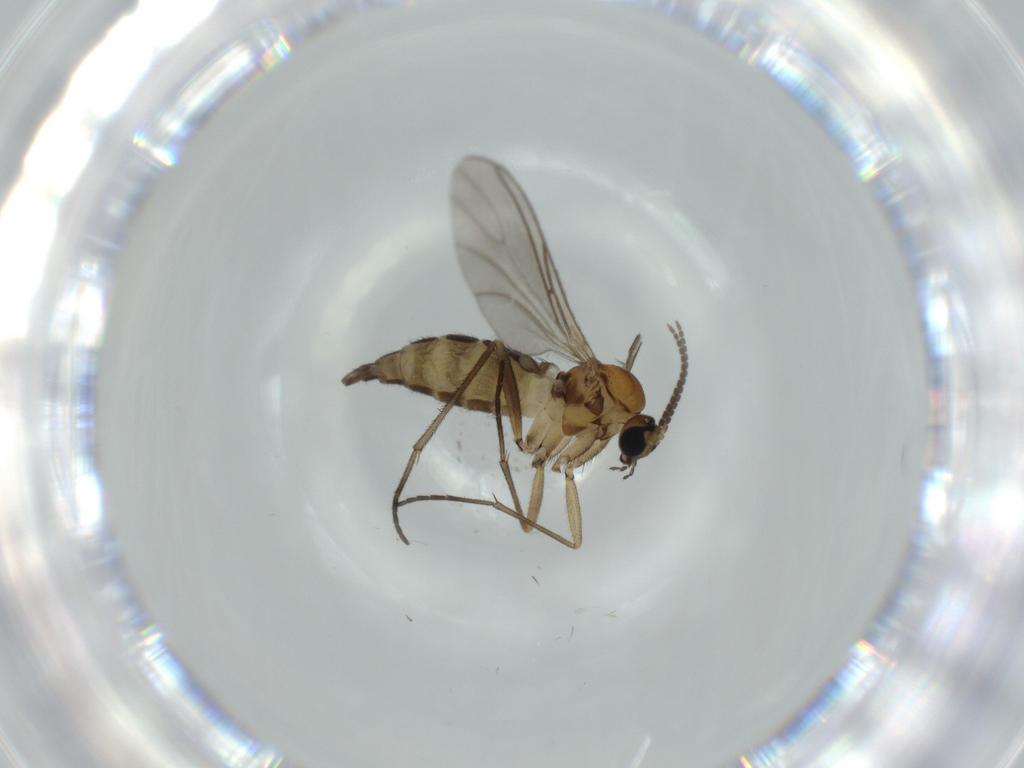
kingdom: Animalia
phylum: Arthropoda
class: Insecta
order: Diptera
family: Sciaridae
